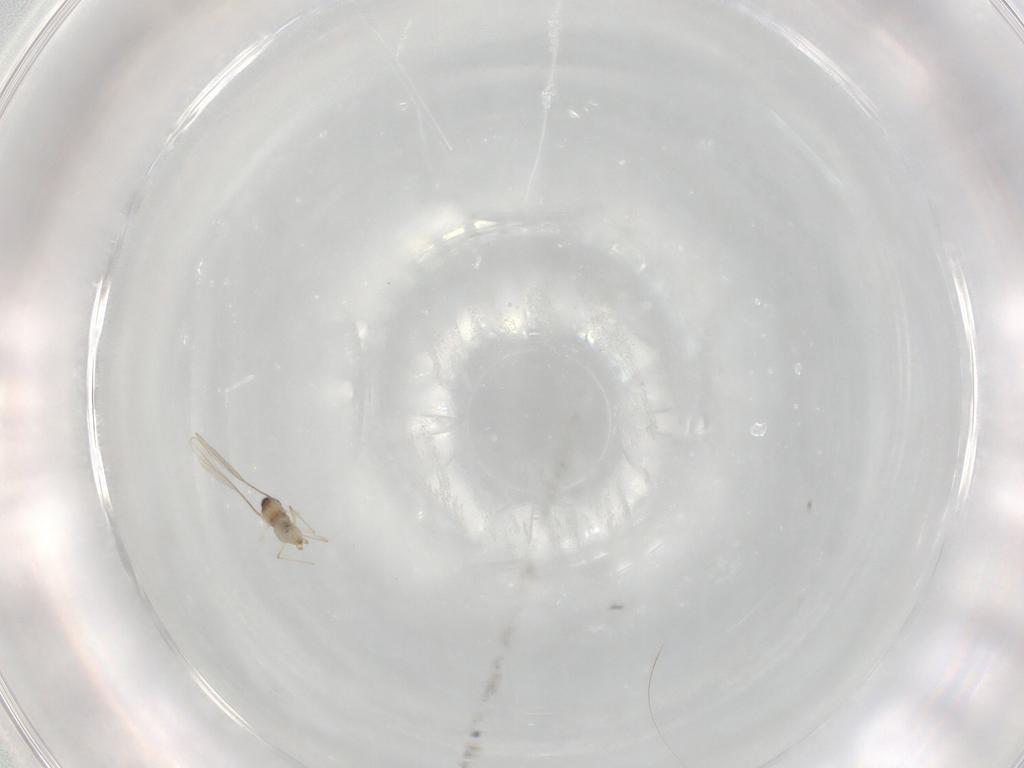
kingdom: Animalia
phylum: Arthropoda
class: Insecta
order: Diptera
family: Cecidomyiidae
